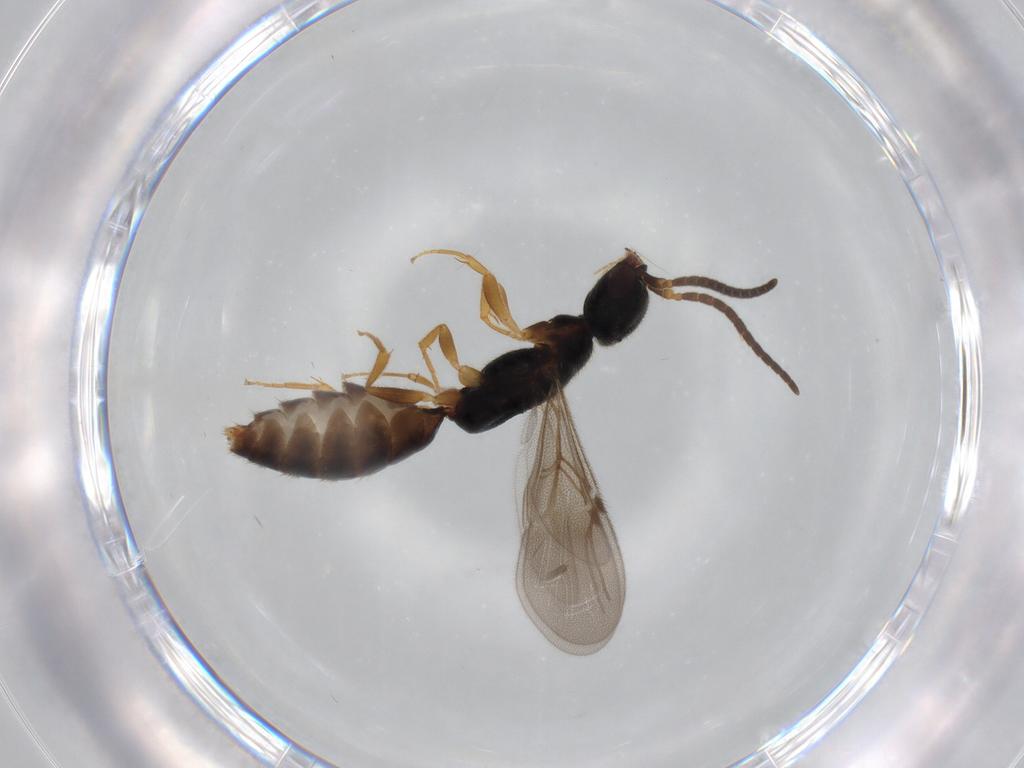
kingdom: Animalia
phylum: Arthropoda
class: Insecta
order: Hymenoptera
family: Bethylidae
